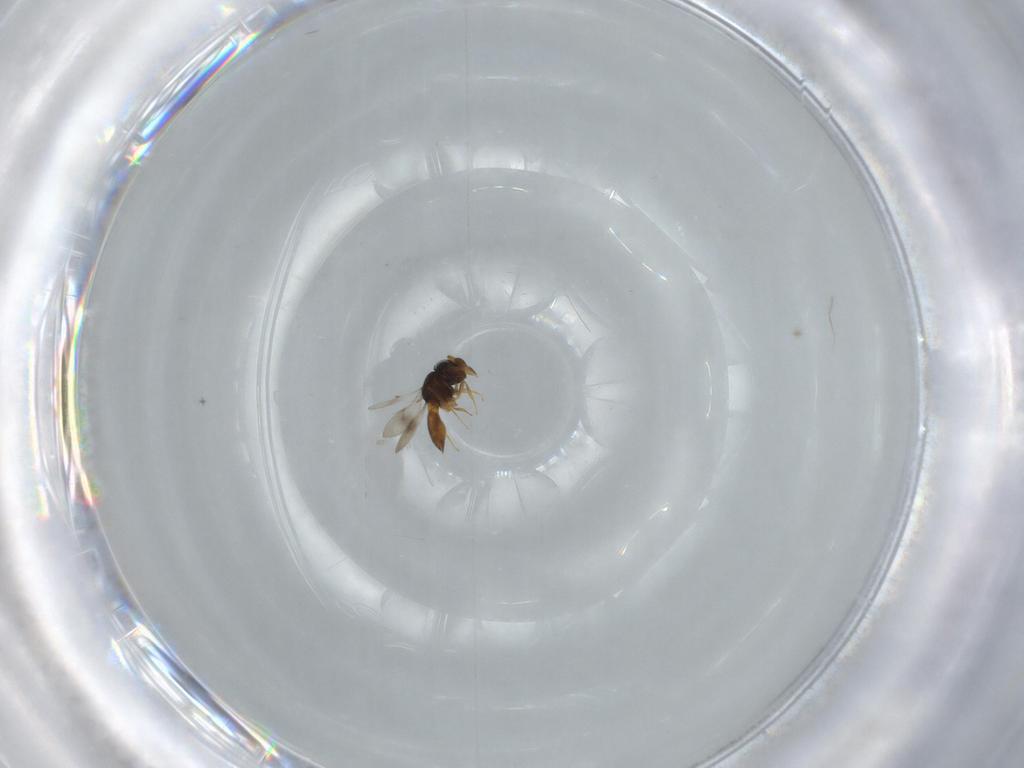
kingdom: Animalia
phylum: Arthropoda
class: Insecta
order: Hymenoptera
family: Scelionidae
